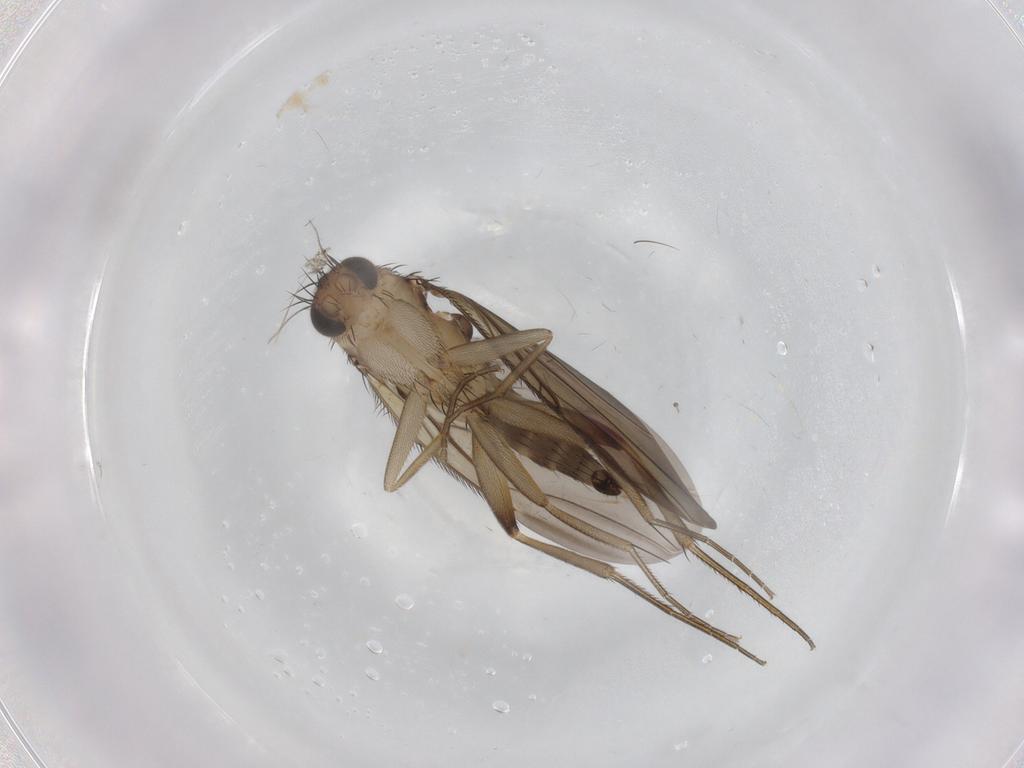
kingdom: Animalia
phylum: Arthropoda
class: Insecta
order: Diptera
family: Phoridae
